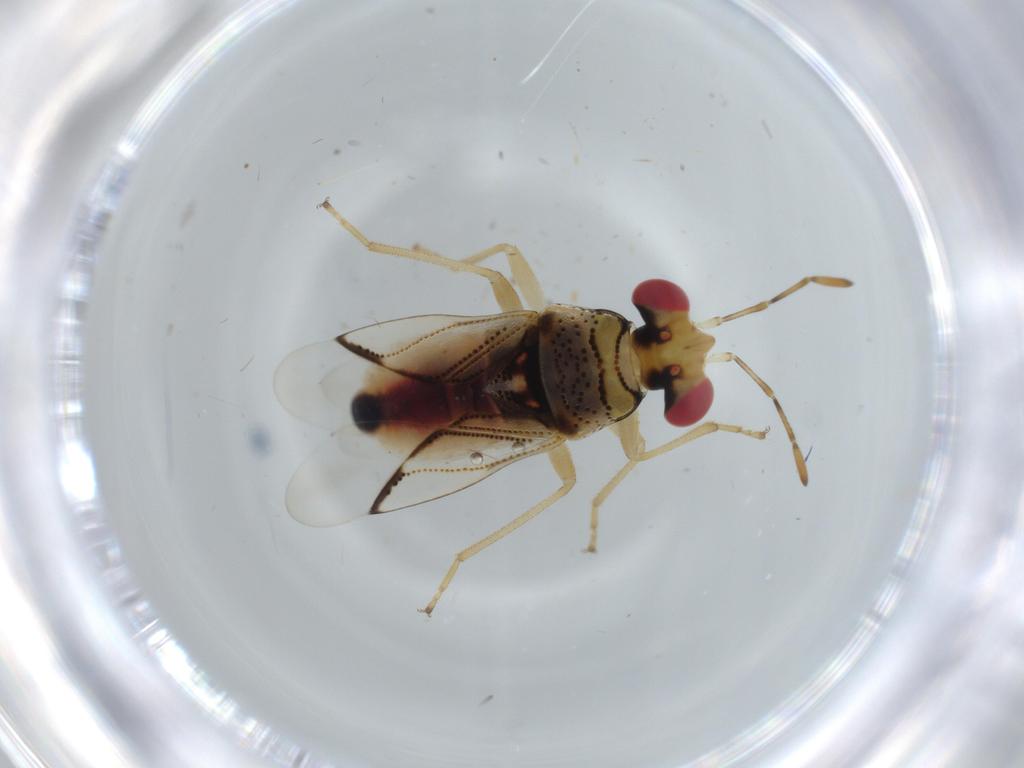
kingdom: Animalia
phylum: Arthropoda
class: Insecta
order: Hemiptera
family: Geocoridae
